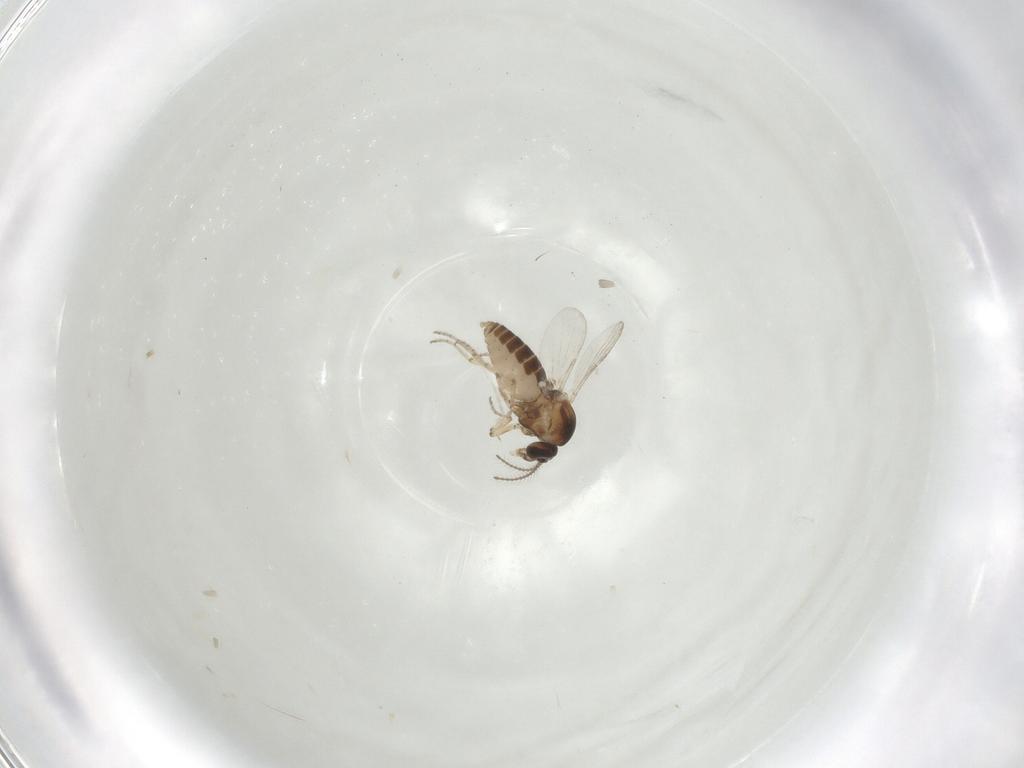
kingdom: Animalia
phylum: Arthropoda
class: Insecta
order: Diptera
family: Ceratopogonidae
